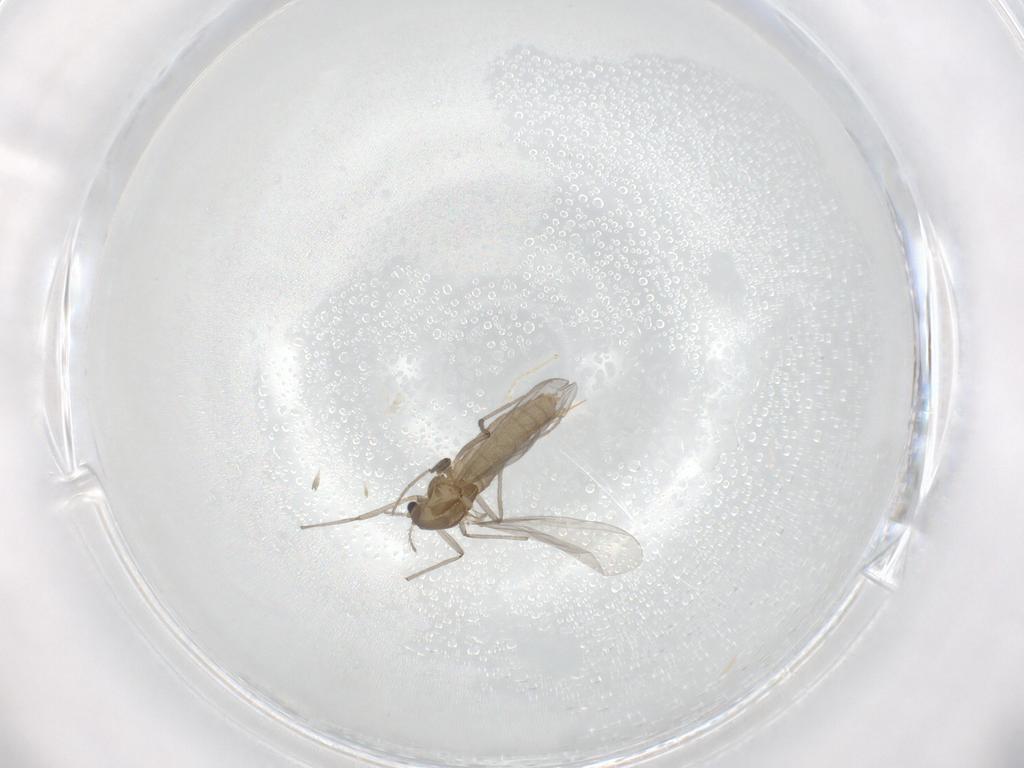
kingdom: Animalia
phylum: Arthropoda
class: Insecta
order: Diptera
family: Chironomidae
